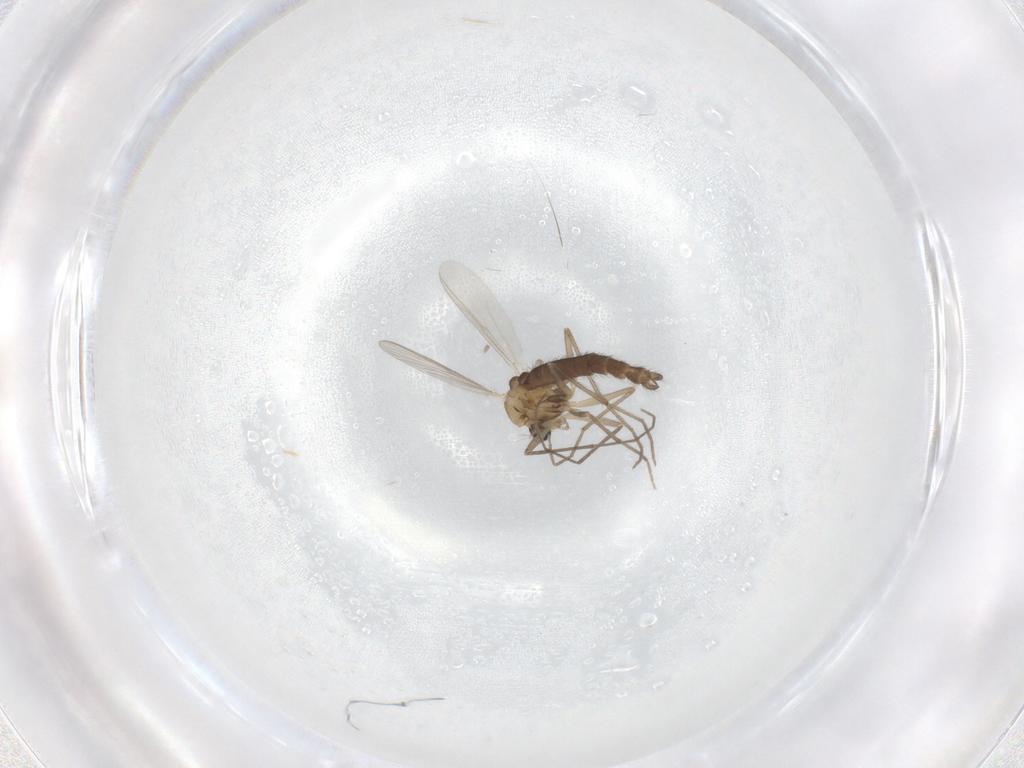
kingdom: Animalia
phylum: Arthropoda
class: Insecta
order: Diptera
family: Chironomidae
